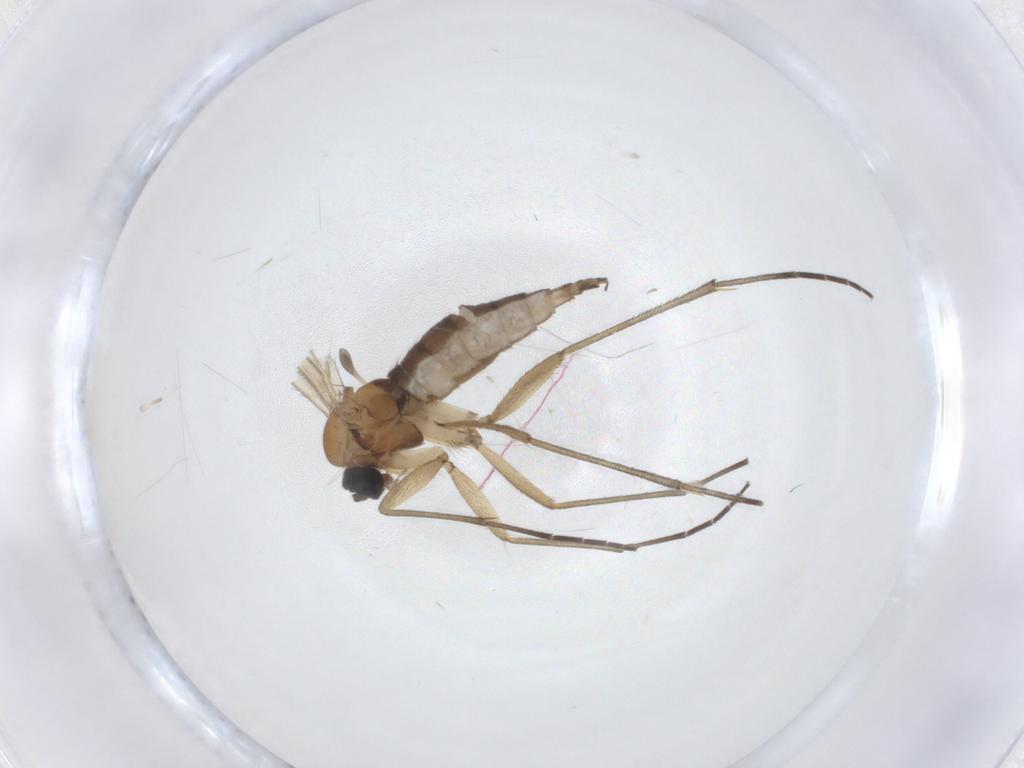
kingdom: Animalia
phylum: Arthropoda
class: Insecta
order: Diptera
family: Sciaridae
